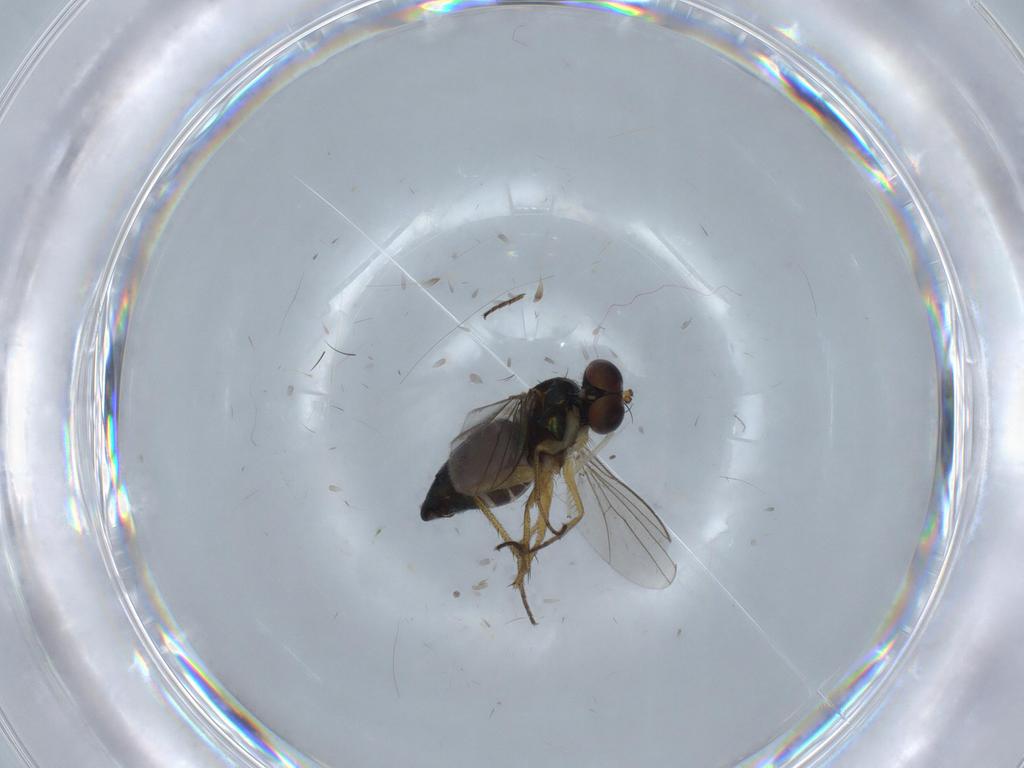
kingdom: Animalia
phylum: Arthropoda
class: Insecta
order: Diptera
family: Chironomidae
